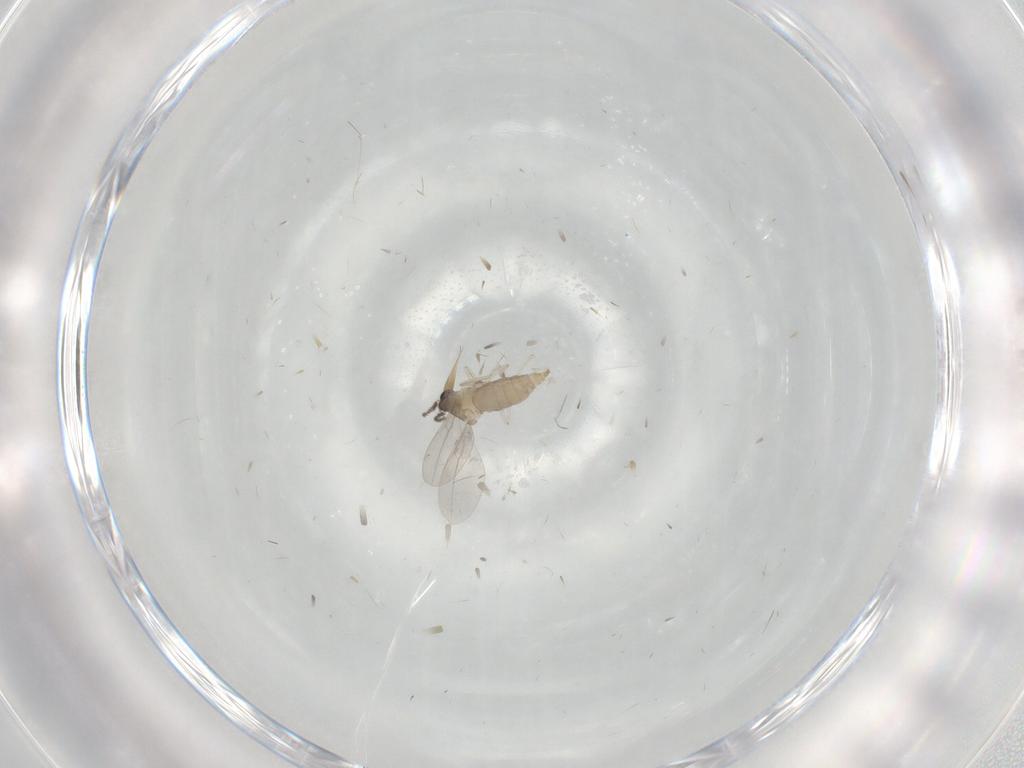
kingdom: Animalia
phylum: Arthropoda
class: Insecta
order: Diptera
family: Cecidomyiidae
